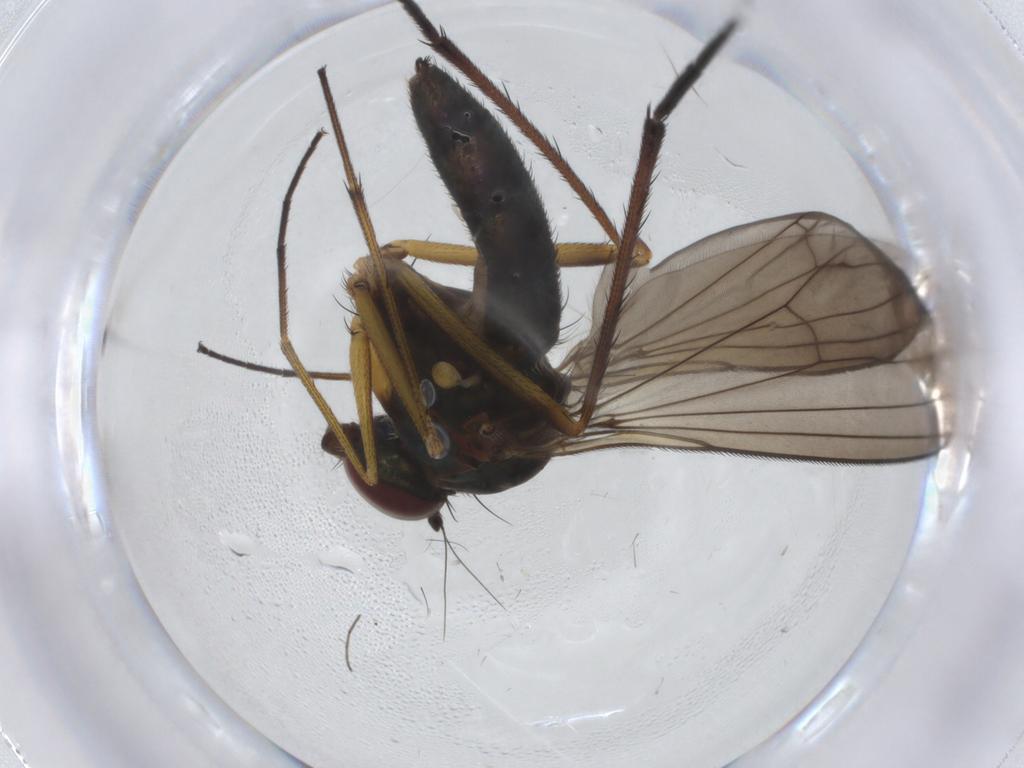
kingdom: Animalia
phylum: Arthropoda
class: Insecta
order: Diptera
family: Dolichopodidae
